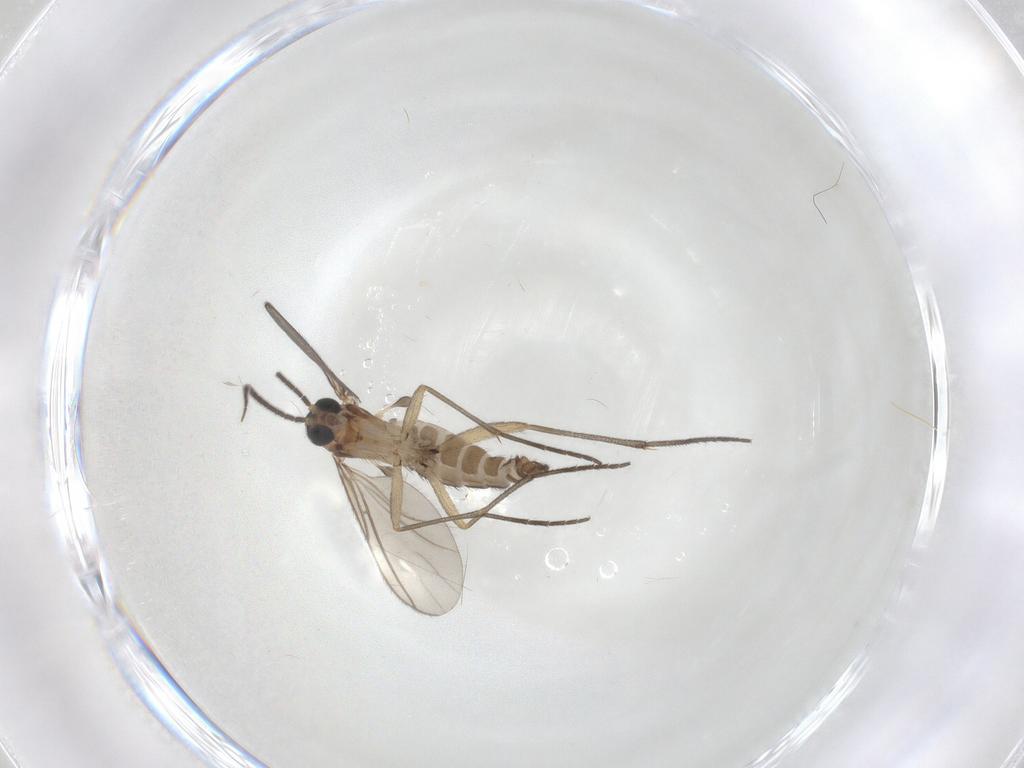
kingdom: Animalia
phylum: Arthropoda
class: Insecta
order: Diptera
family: Sciaridae
